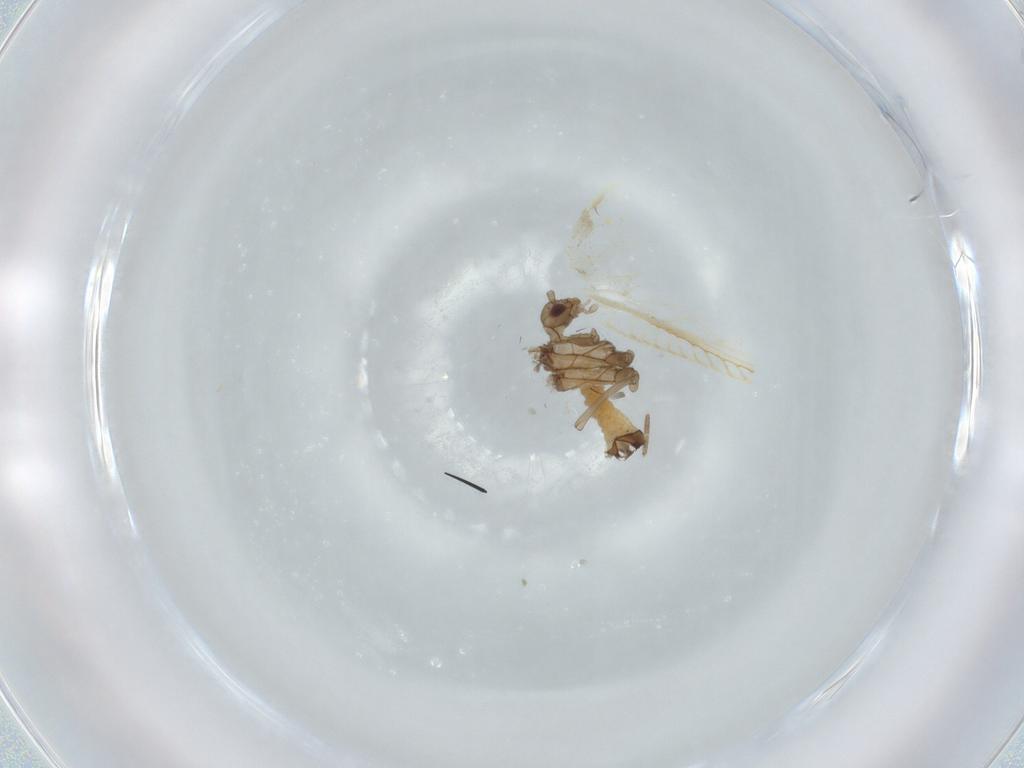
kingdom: Animalia
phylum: Arthropoda
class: Insecta
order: Neuroptera
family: Coniopterygidae
